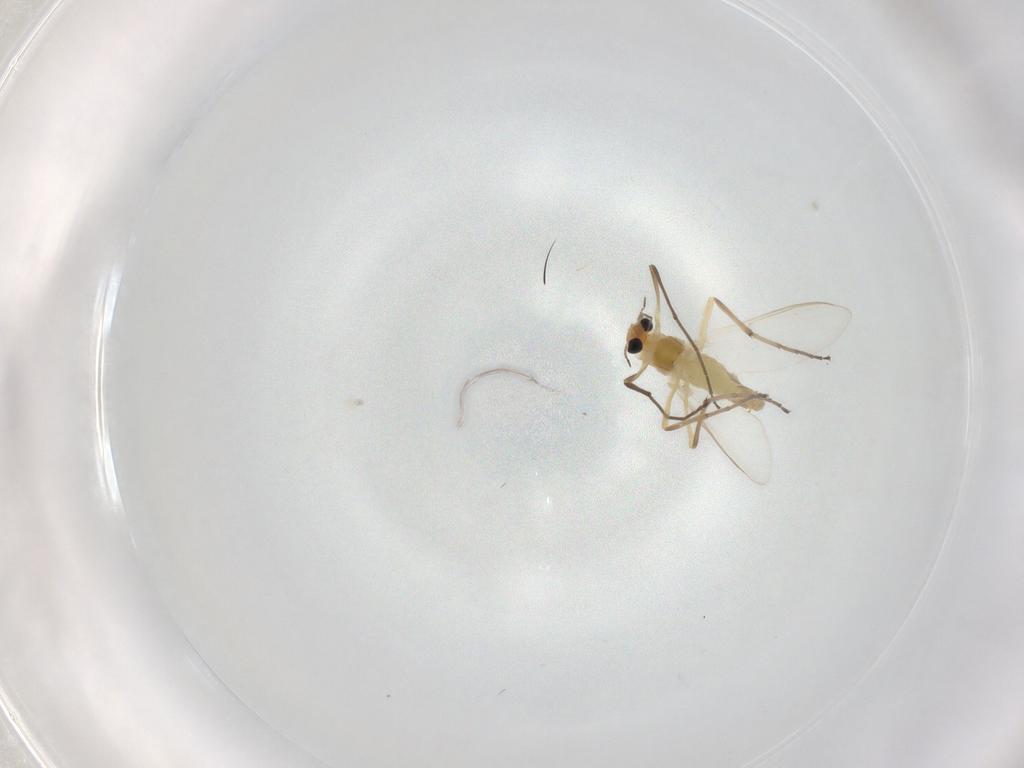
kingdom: Animalia
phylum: Arthropoda
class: Insecta
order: Diptera
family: Chironomidae
